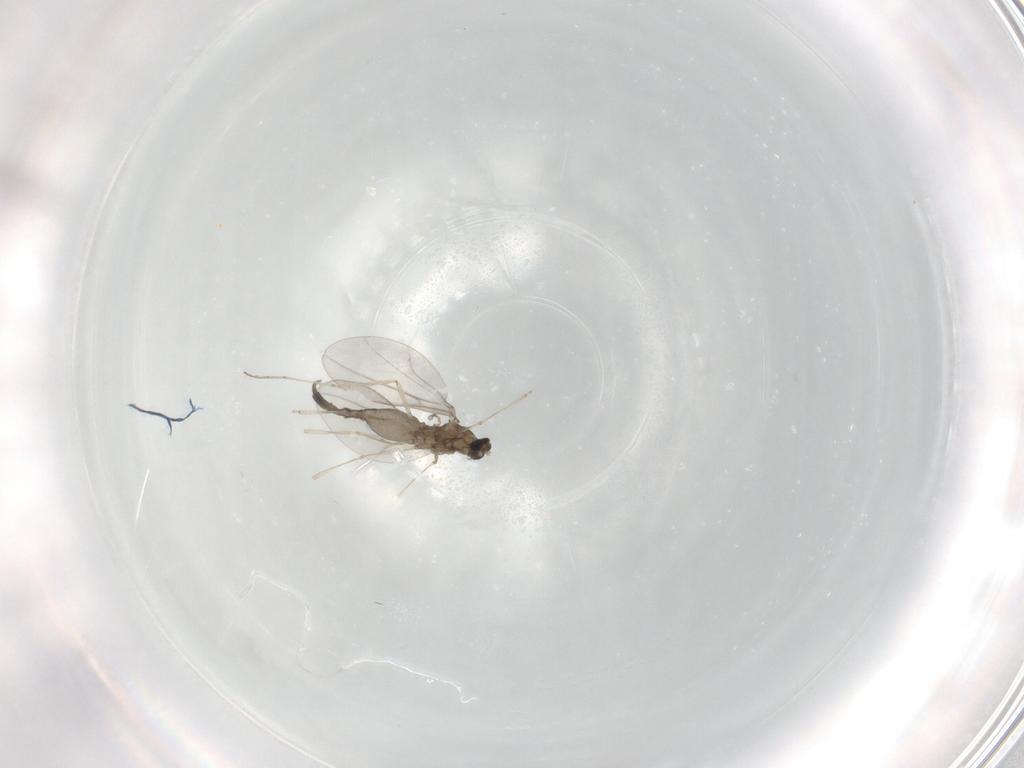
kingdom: Animalia
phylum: Arthropoda
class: Insecta
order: Diptera
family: Cecidomyiidae
